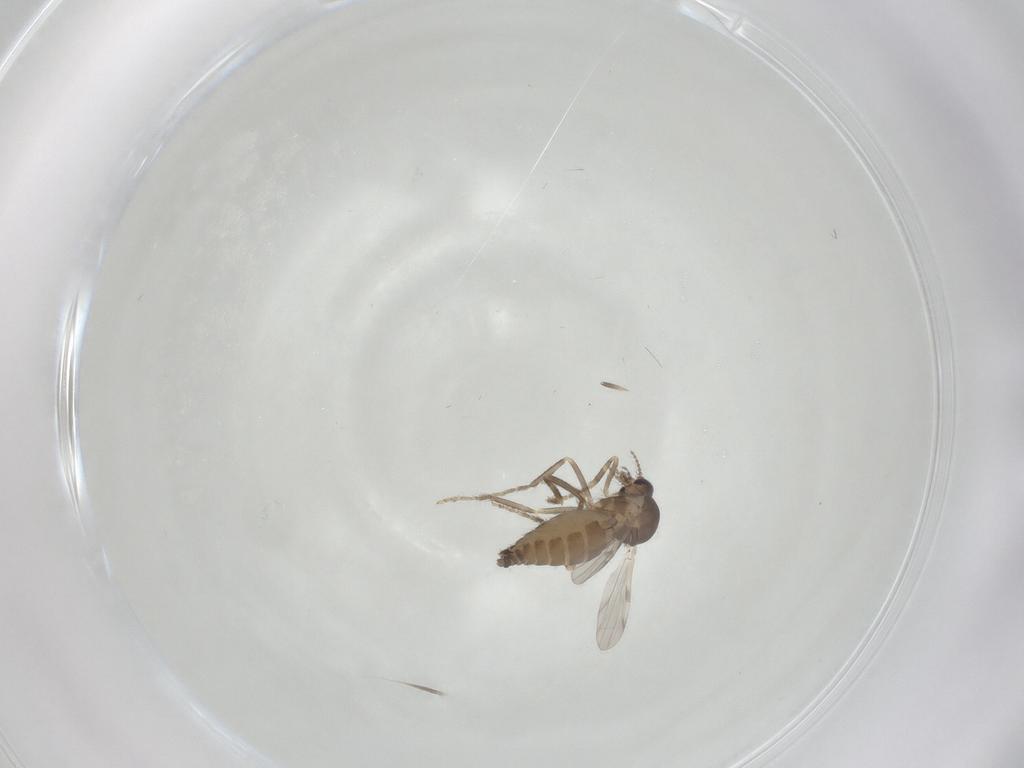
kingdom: Animalia
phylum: Arthropoda
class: Insecta
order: Diptera
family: Ceratopogonidae
